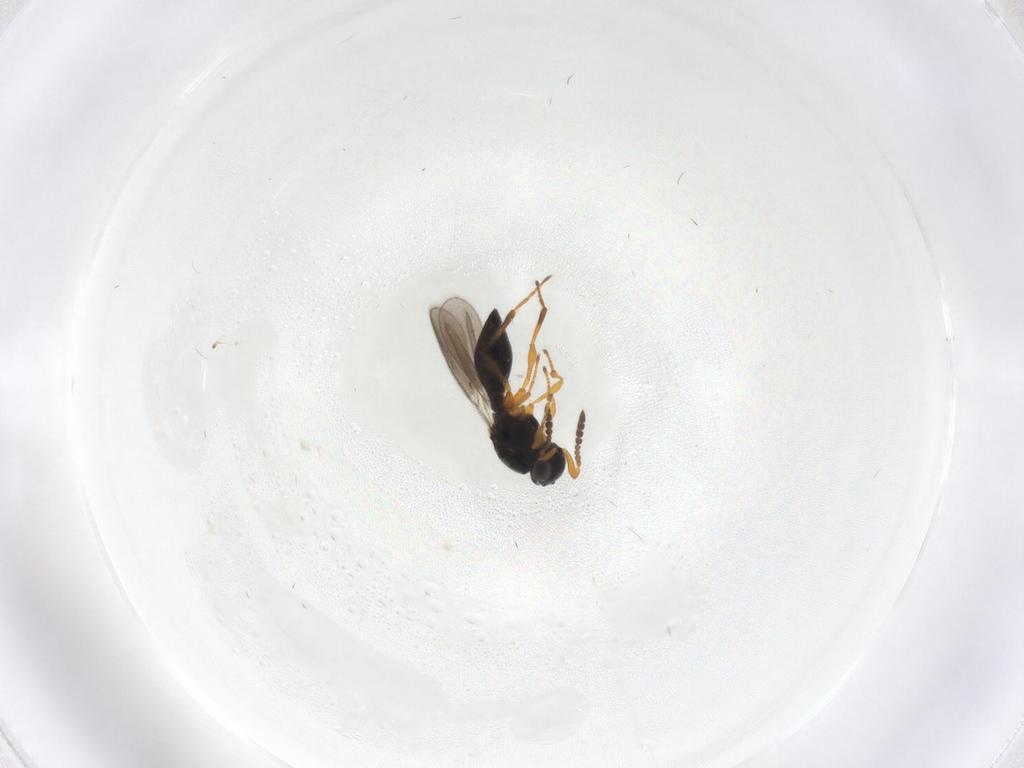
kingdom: Animalia
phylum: Arthropoda
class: Insecta
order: Hymenoptera
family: Platygastridae
